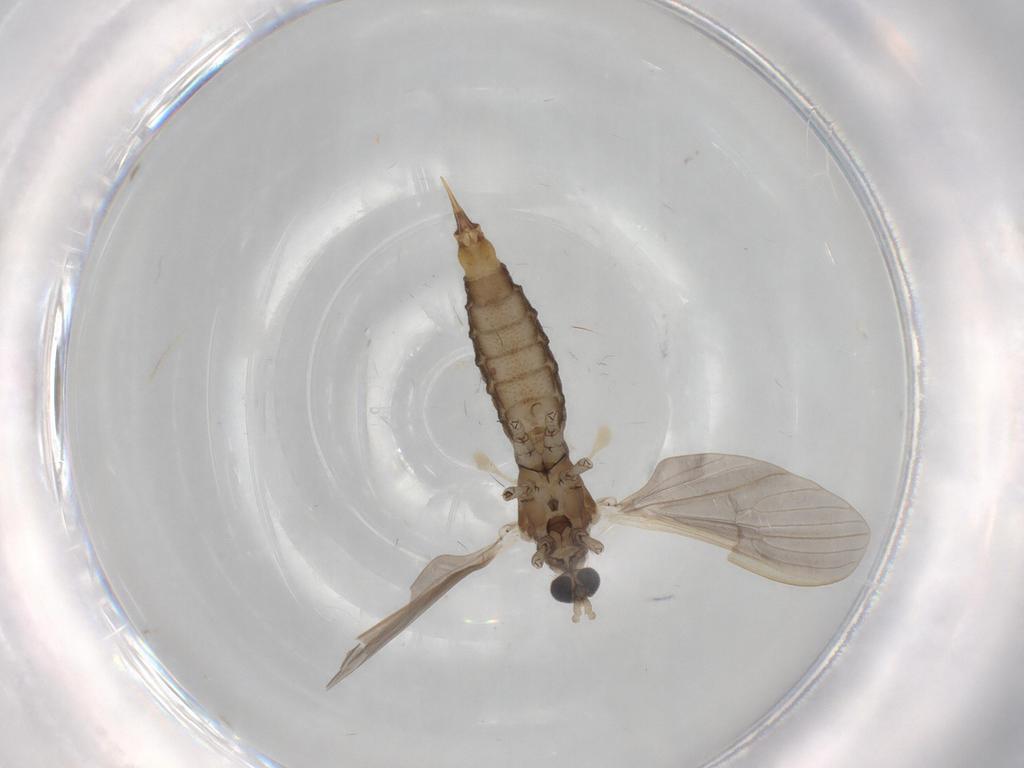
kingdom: Animalia
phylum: Arthropoda
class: Insecta
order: Diptera
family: Limoniidae
